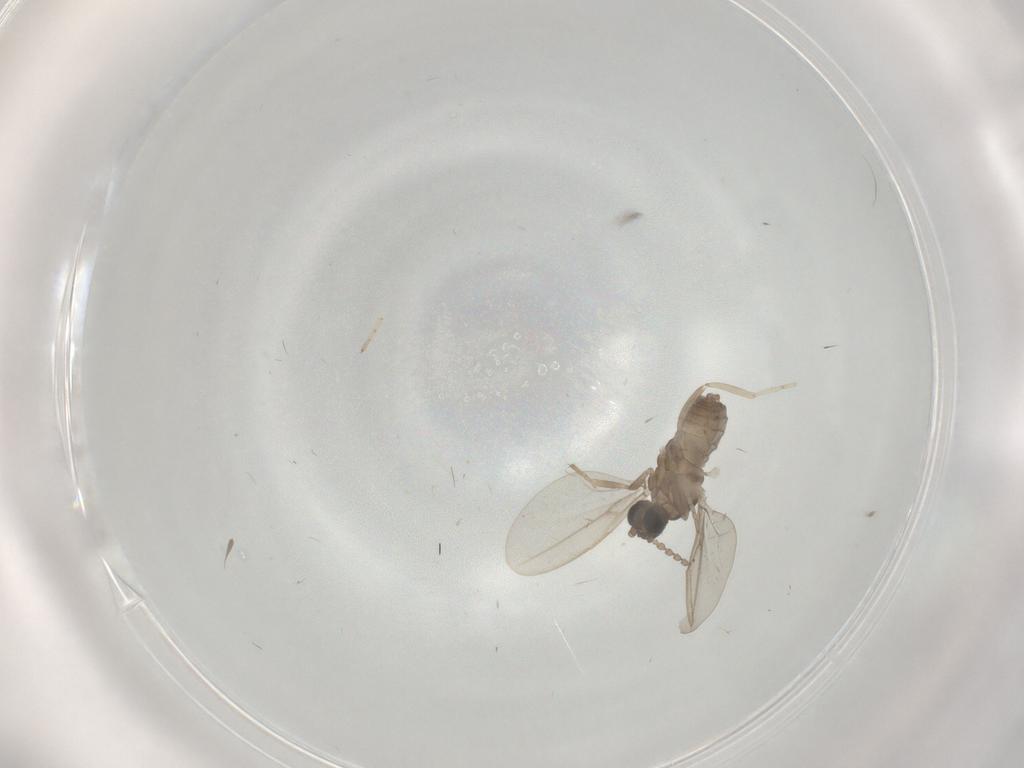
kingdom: Animalia
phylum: Arthropoda
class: Insecta
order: Diptera
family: Cecidomyiidae
